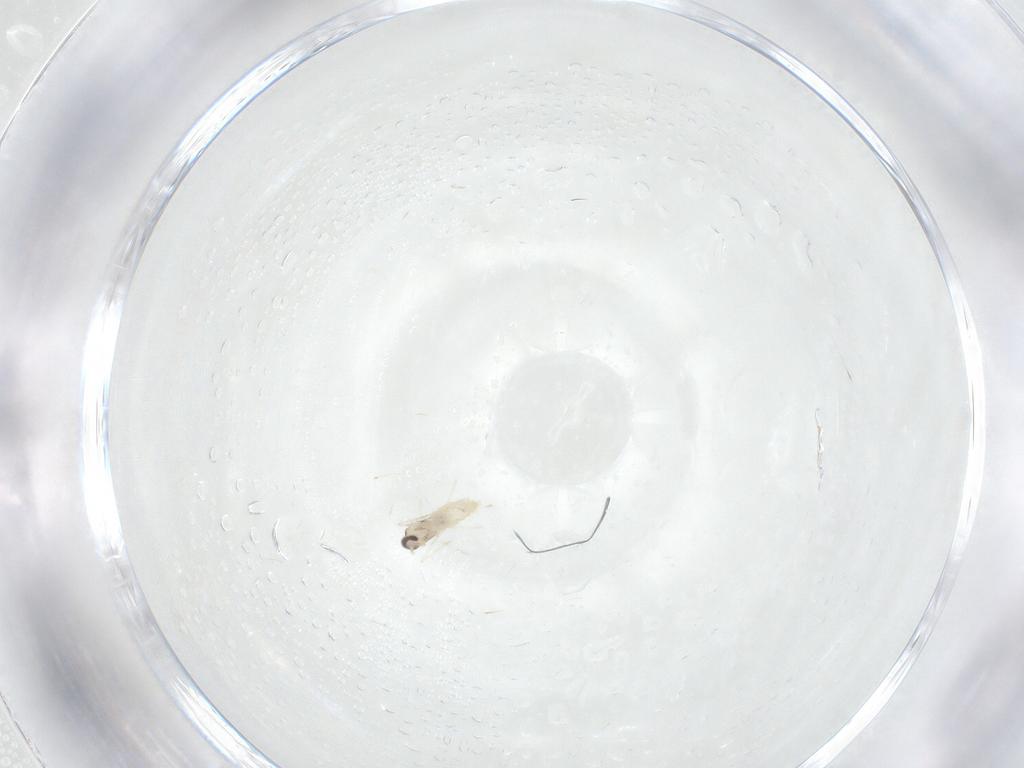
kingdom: Animalia
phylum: Arthropoda
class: Insecta
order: Diptera
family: Cecidomyiidae
